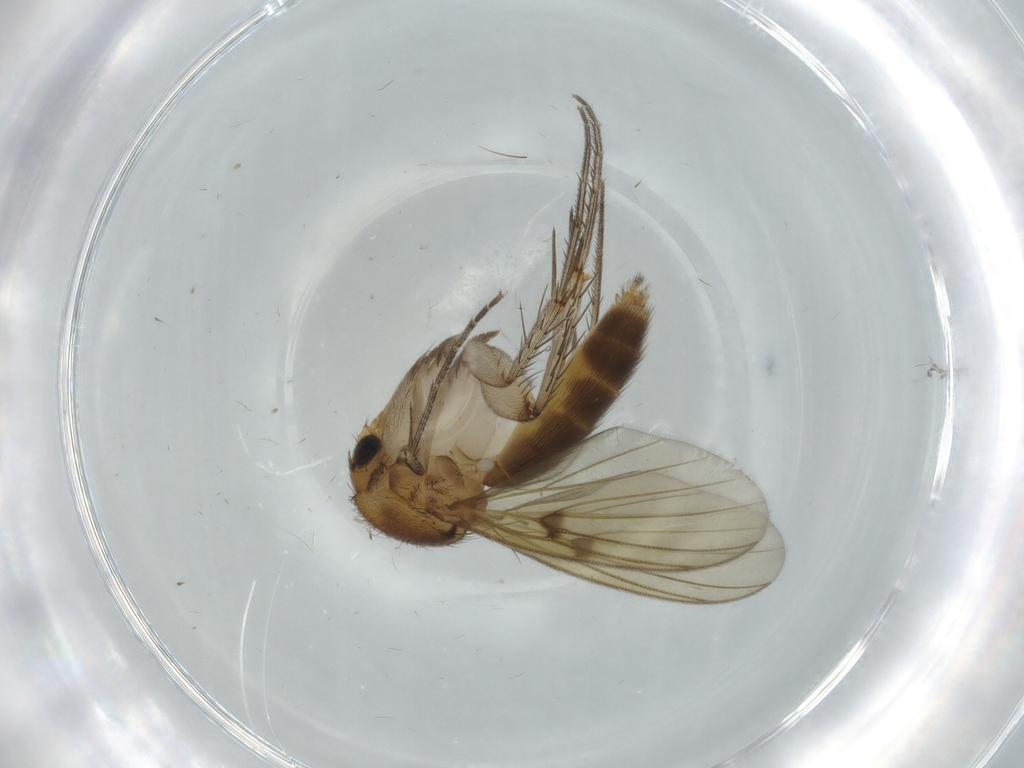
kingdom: Animalia
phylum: Arthropoda
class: Insecta
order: Diptera
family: Mycetophilidae
